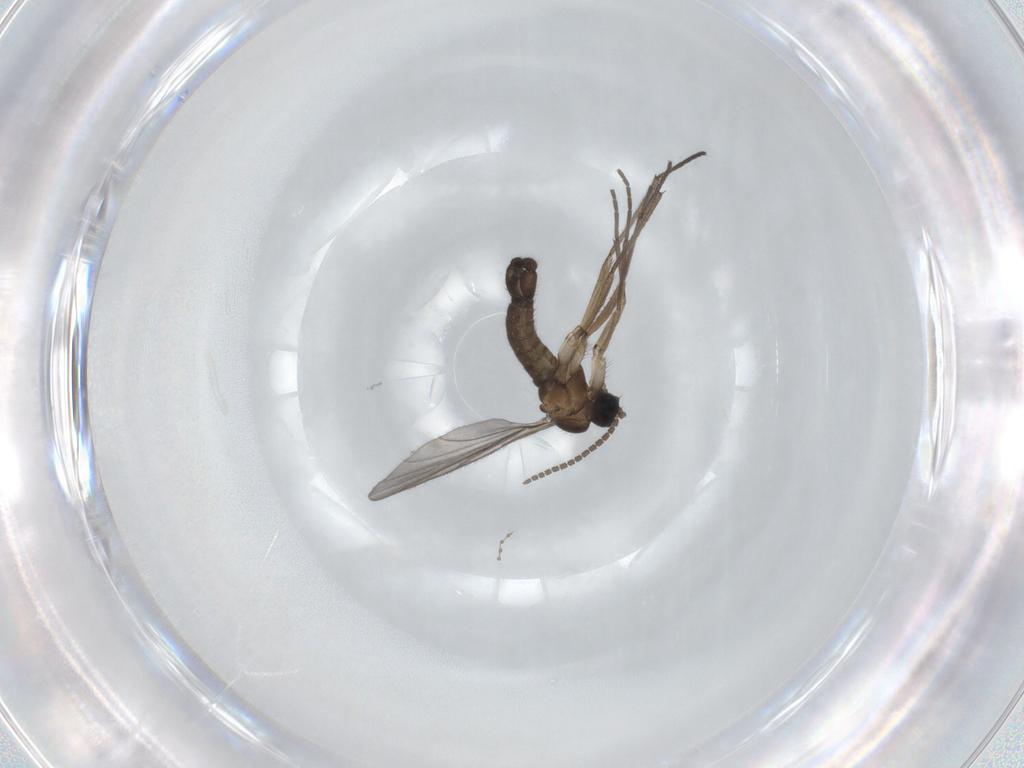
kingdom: Animalia
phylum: Arthropoda
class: Insecta
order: Diptera
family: Sciaridae
